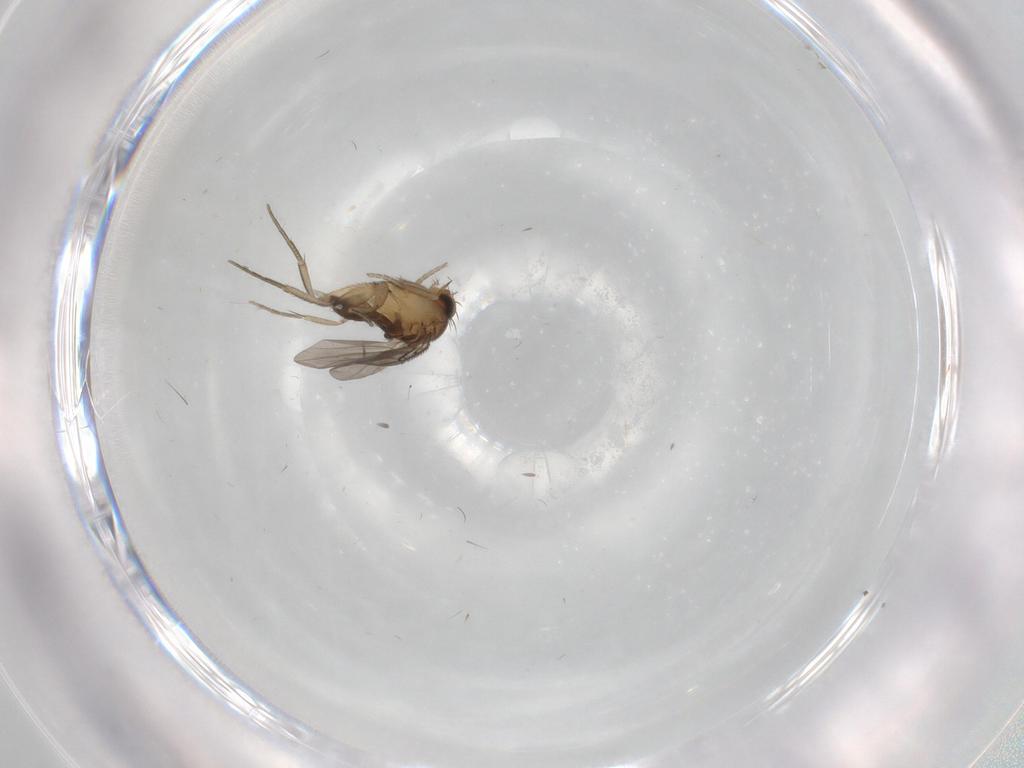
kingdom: Animalia
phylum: Arthropoda
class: Insecta
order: Diptera
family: Phoridae
